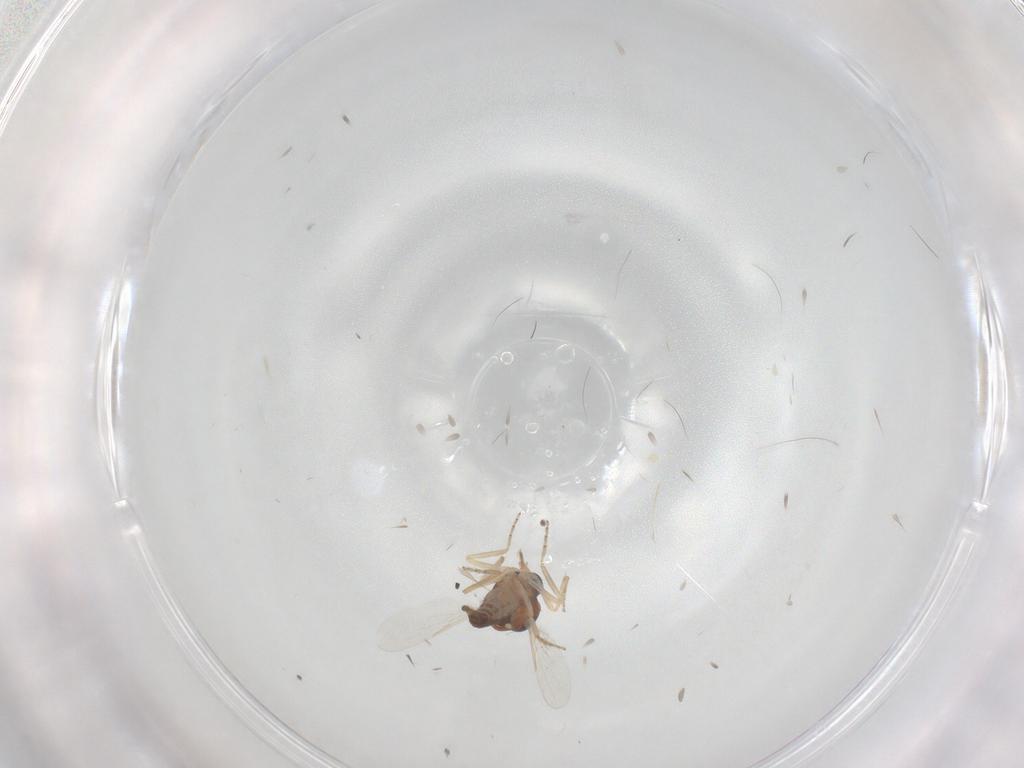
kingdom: Animalia
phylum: Arthropoda
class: Insecta
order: Diptera
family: Ceratopogonidae
